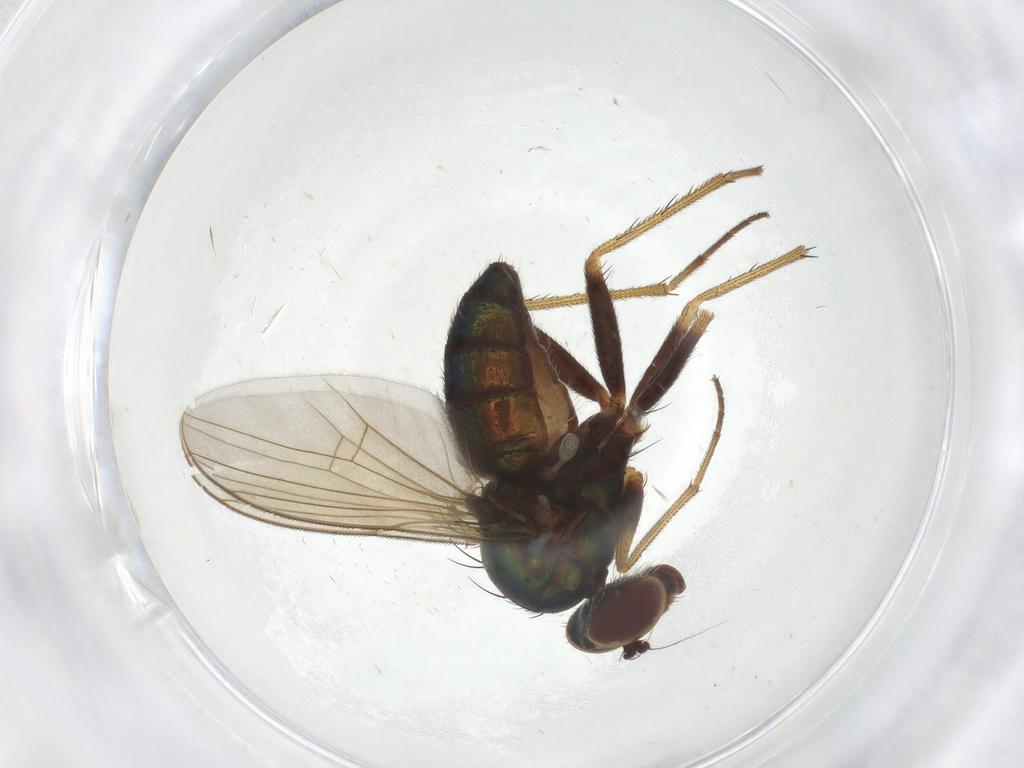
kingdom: Animalia
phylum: Arthropoda
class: Insecta
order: Diptera
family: Dolichopodidae
